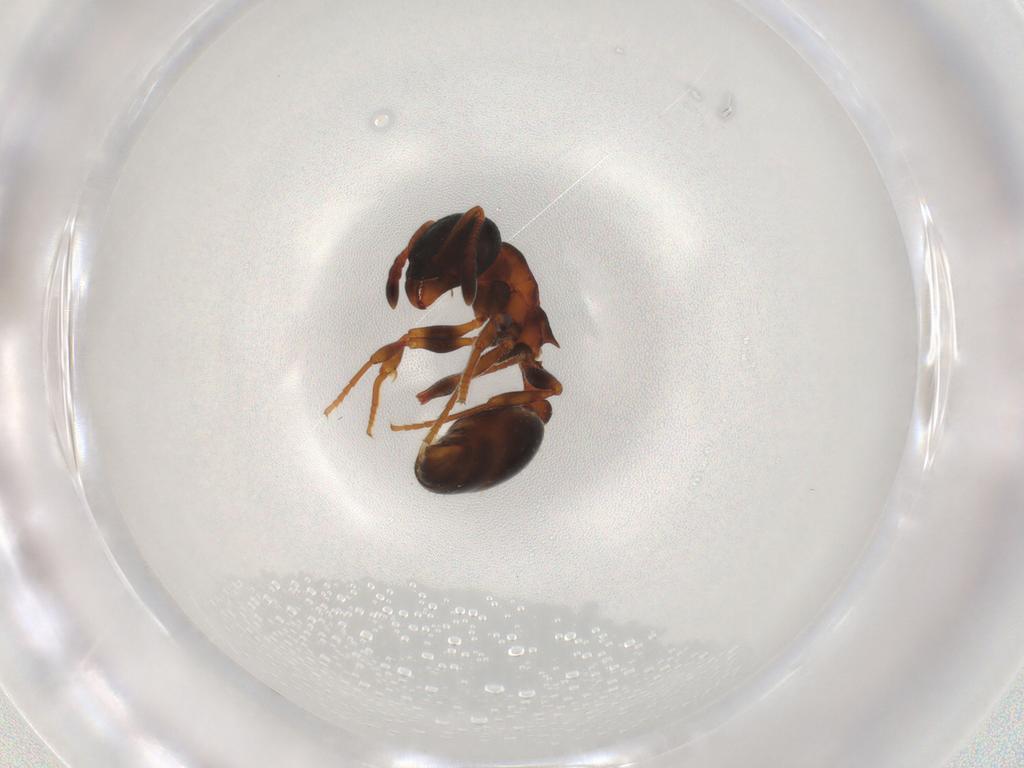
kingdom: Animalia
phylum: Arthropoda
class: Insecta
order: Hymenoptera
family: Formicidae
